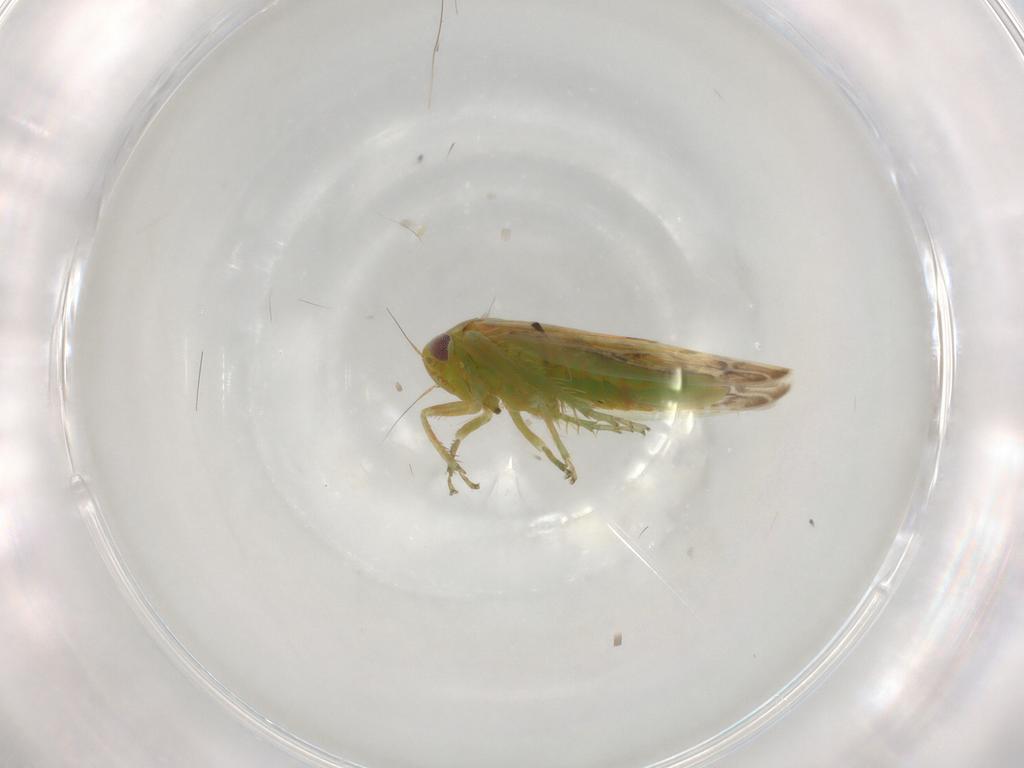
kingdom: Animalia
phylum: Arthropoda
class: Insecta
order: Hemiptera
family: Cicadellidae
